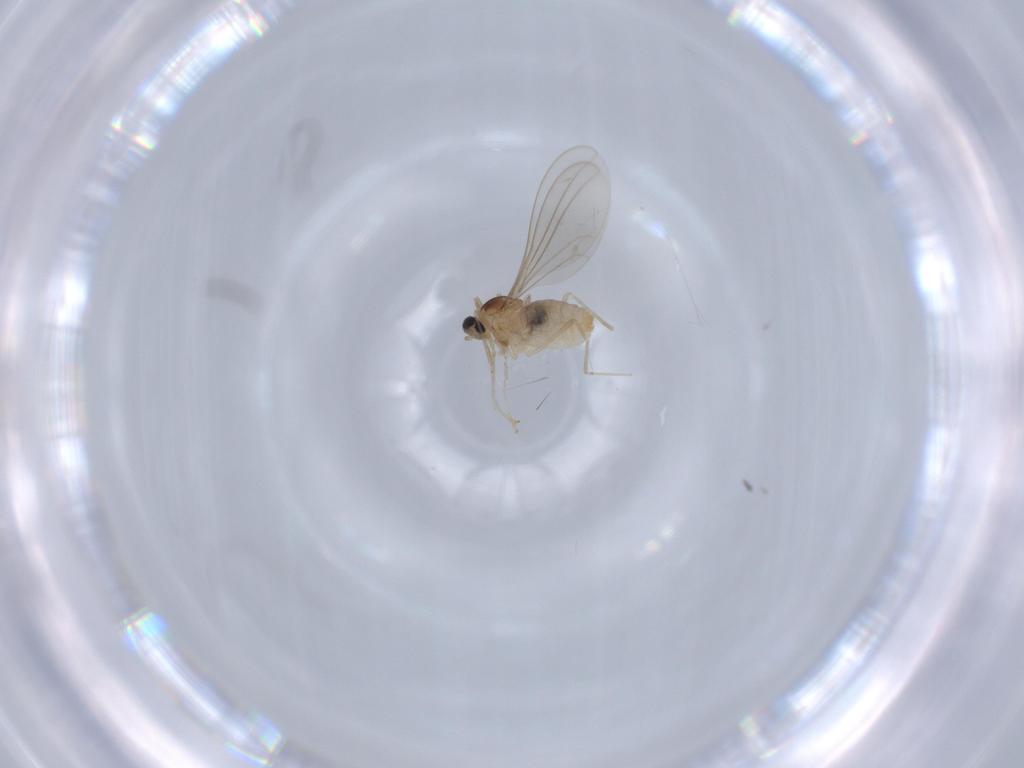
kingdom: Animalia
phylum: Arthropoda
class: Insecta
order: Diptera
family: Cecidomyiidae
